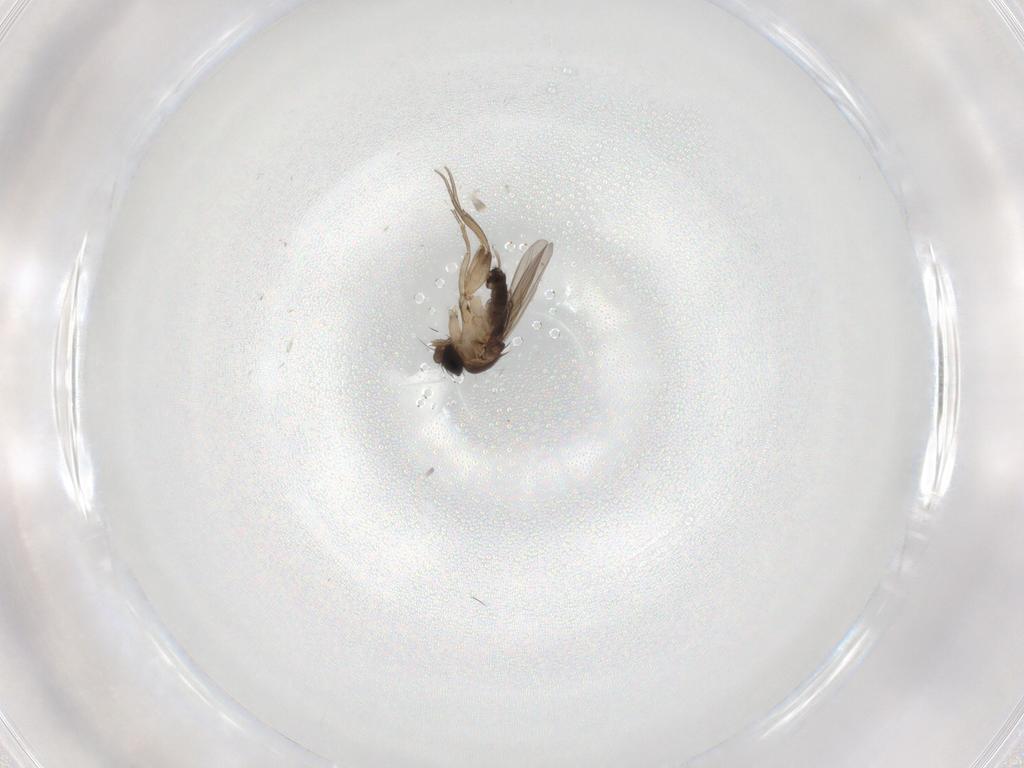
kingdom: Animalia
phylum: Arthropoda
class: Insecta
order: Diptera
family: Phoridae
